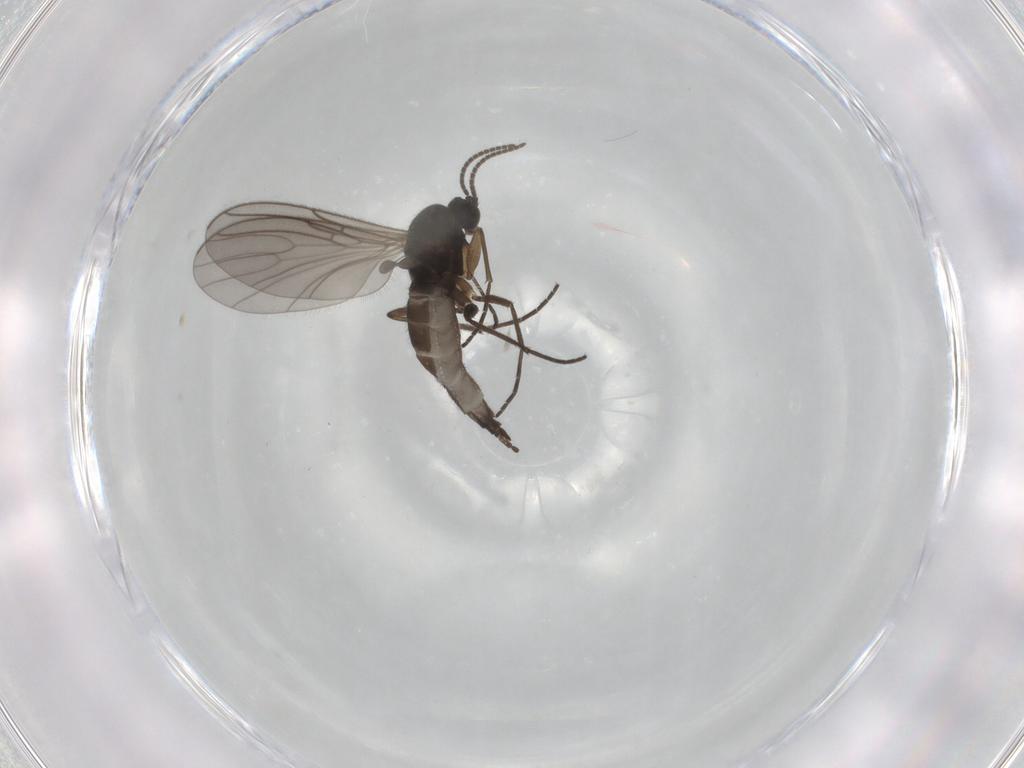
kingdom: Animalia
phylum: Arthropoda
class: Insecta
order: Diptera
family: Sciaridae
